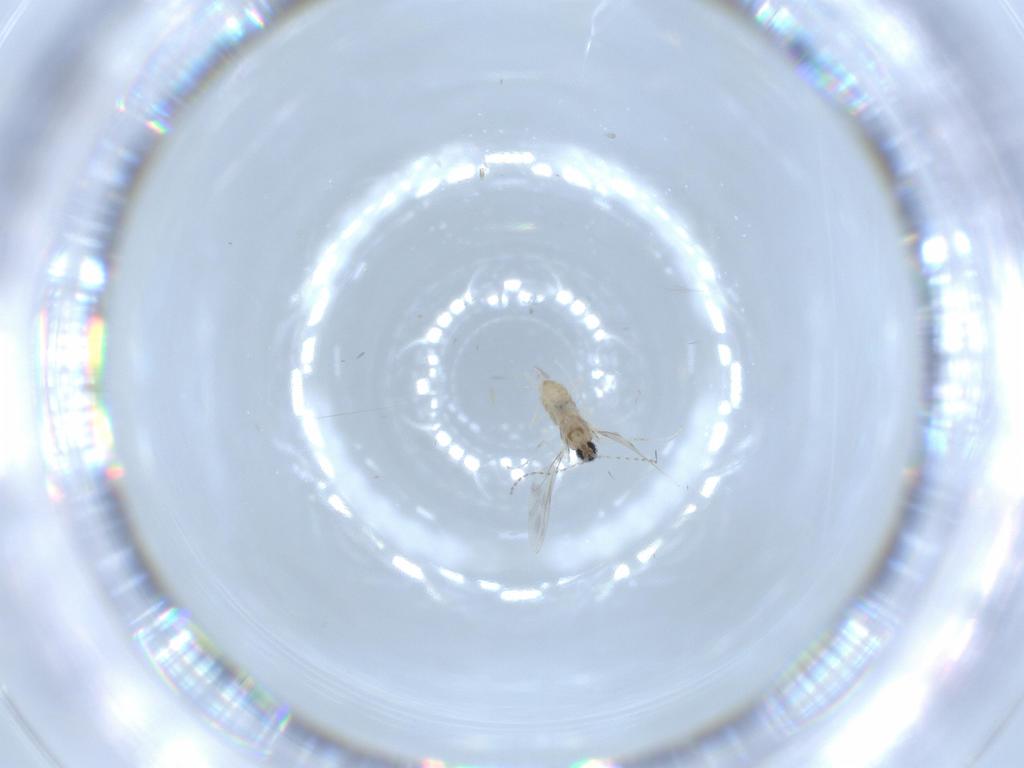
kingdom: Animalia
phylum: Arthropoda
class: Insecta
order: Diptera
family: Cecidomyiidae
